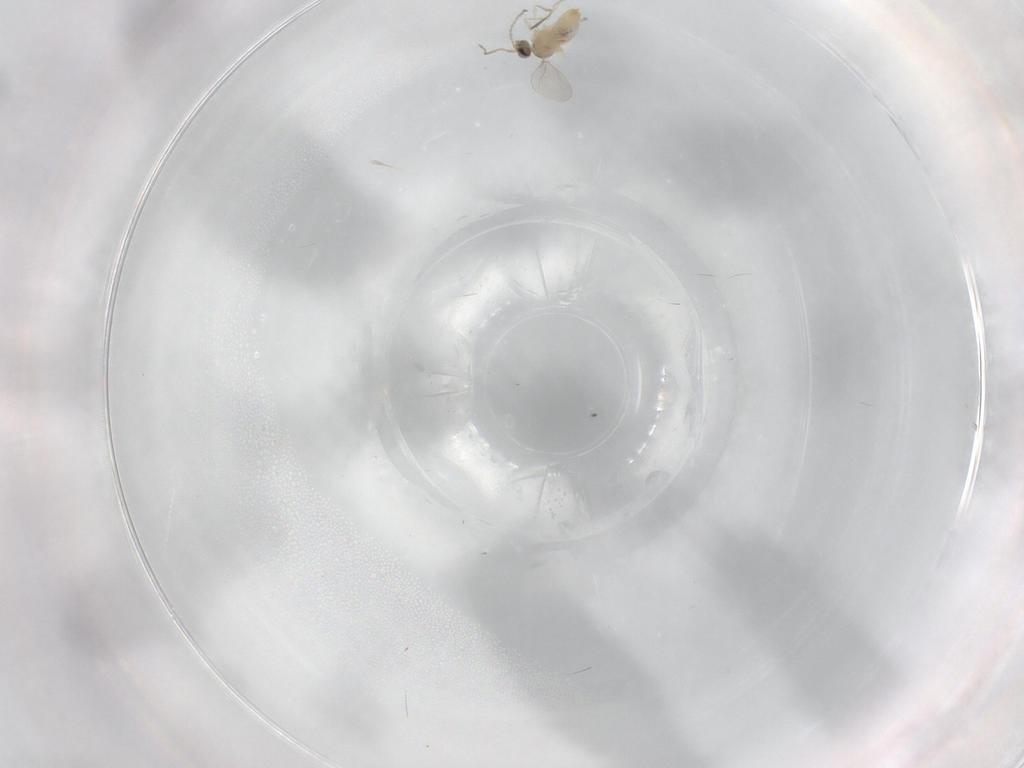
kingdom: Animalia
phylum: Arthropoda
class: Insecta
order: Diptera
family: Cecidomyiidae
